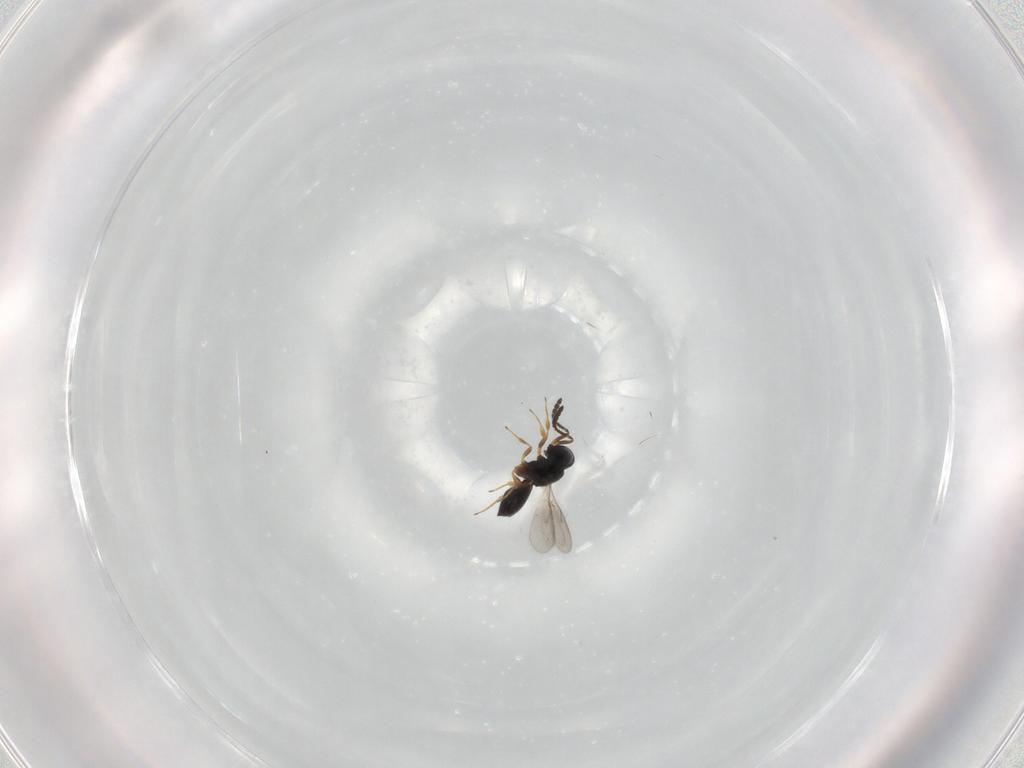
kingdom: Animalia
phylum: Arthropoda
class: Insecta
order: Hymenoptera
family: Scelionidae
